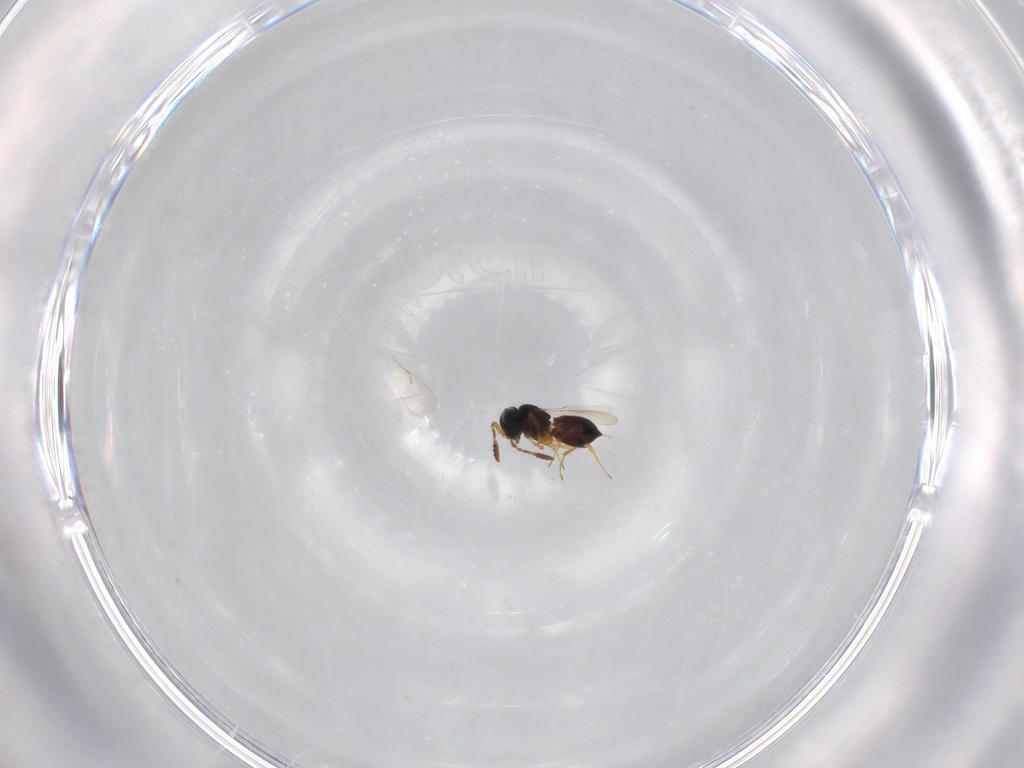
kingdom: Animalia
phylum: Arthropoda
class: Insecta
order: Hymenoptera
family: Scelionidae
